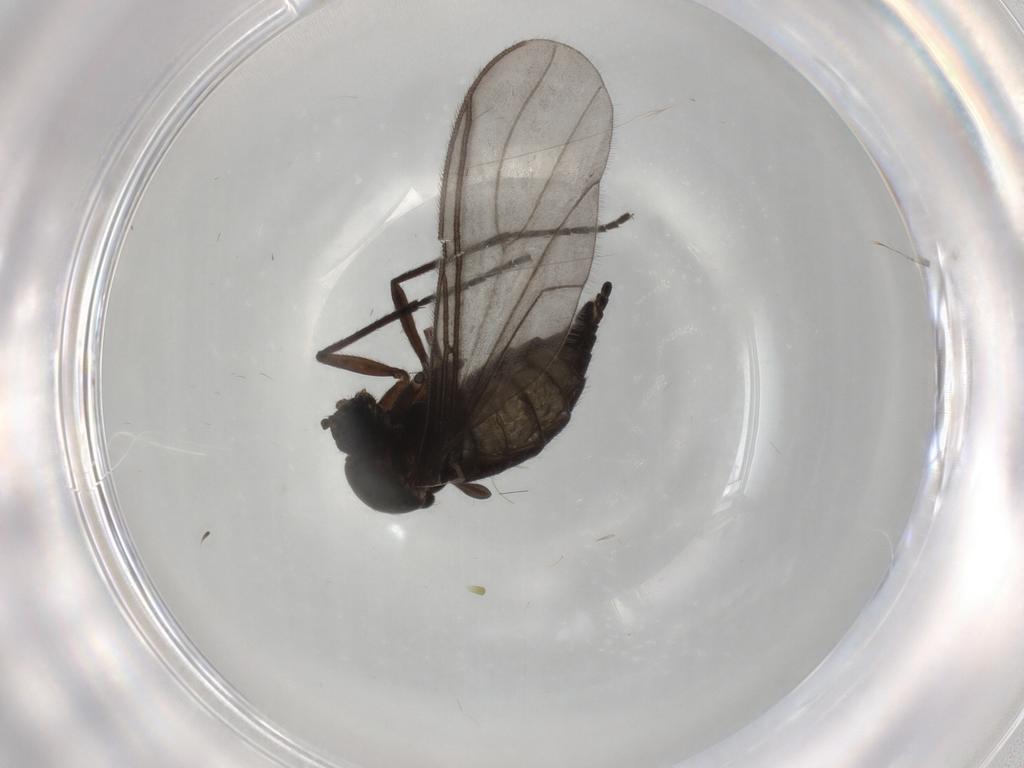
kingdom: Animalia
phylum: Arthropoda
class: Insecta
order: Diptera
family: Sciaridae
